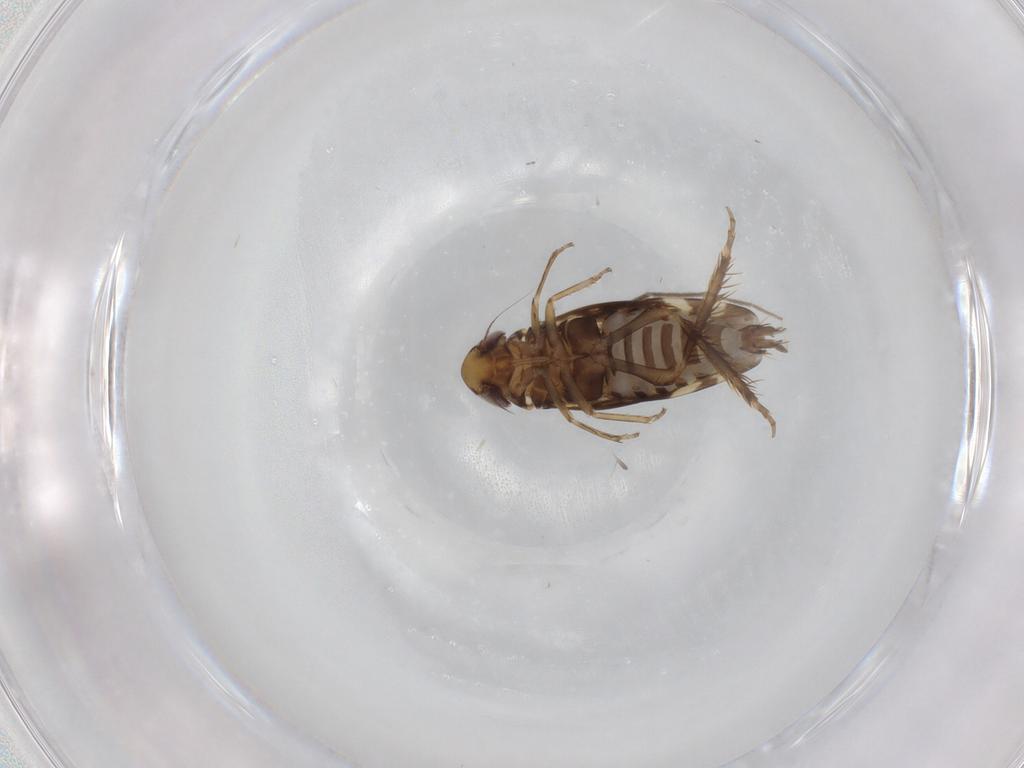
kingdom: Animalia
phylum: Arthropoda
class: Insecta
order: Hemiptera
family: Cicadellidae
